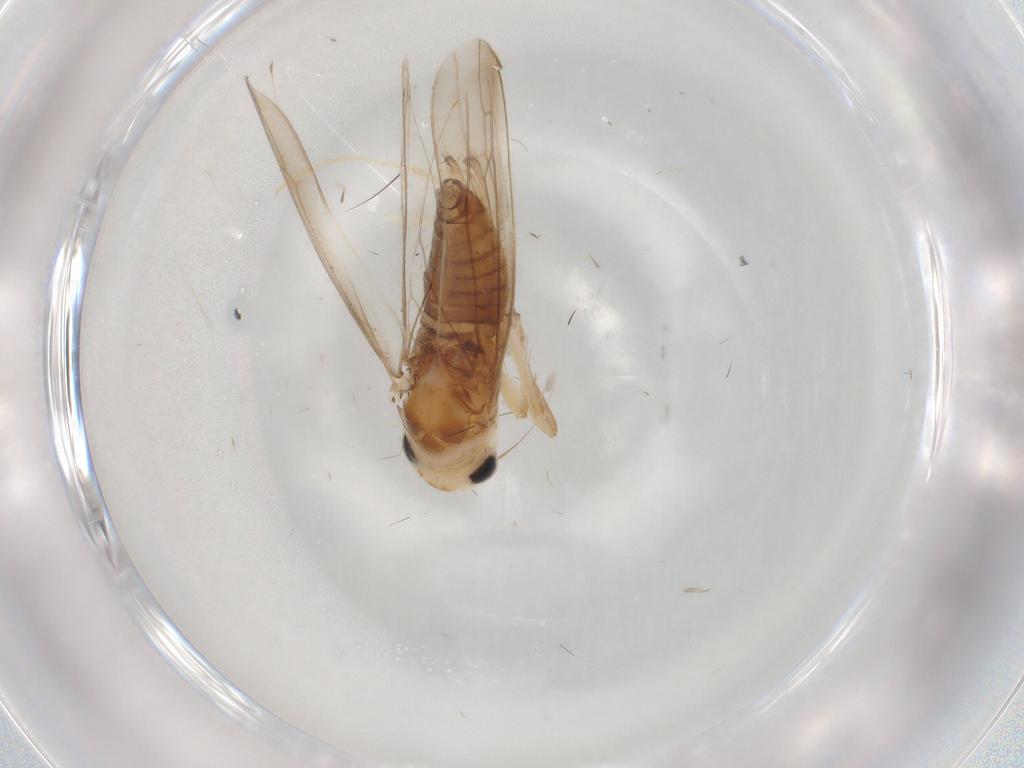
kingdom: Animalia
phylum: Arthropoda
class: Insecta
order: Hemiptera
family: Cicadellidae
